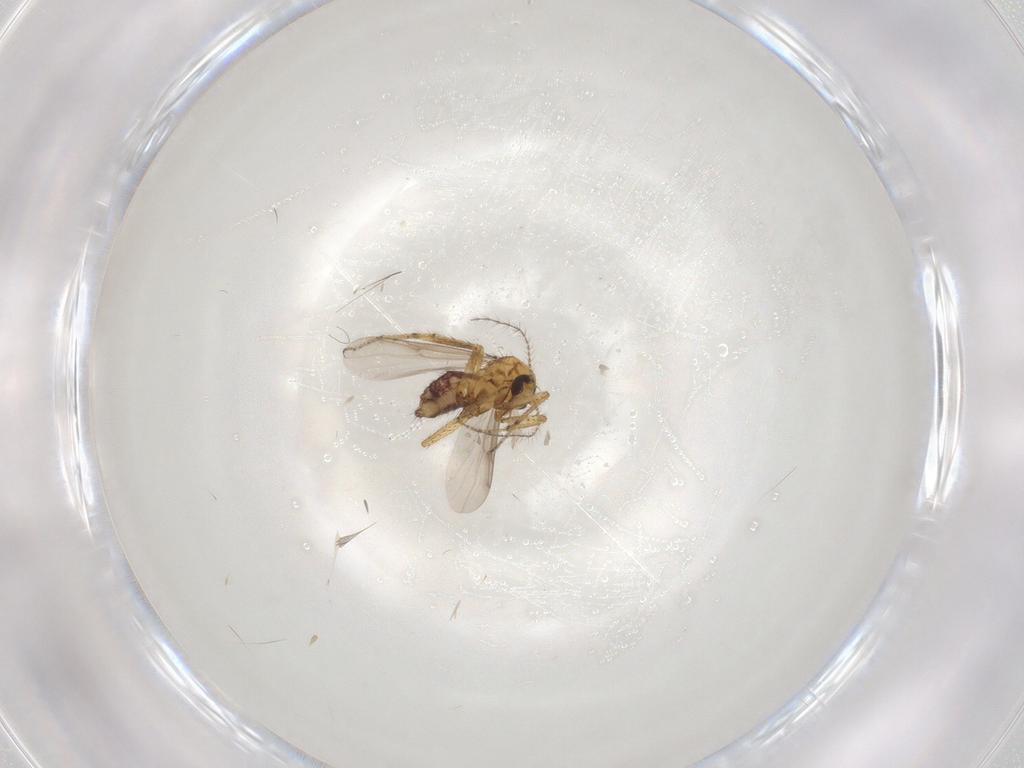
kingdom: Animalia
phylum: Arthropoda
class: Insecta
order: Diptera
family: Ceratopogonidae
